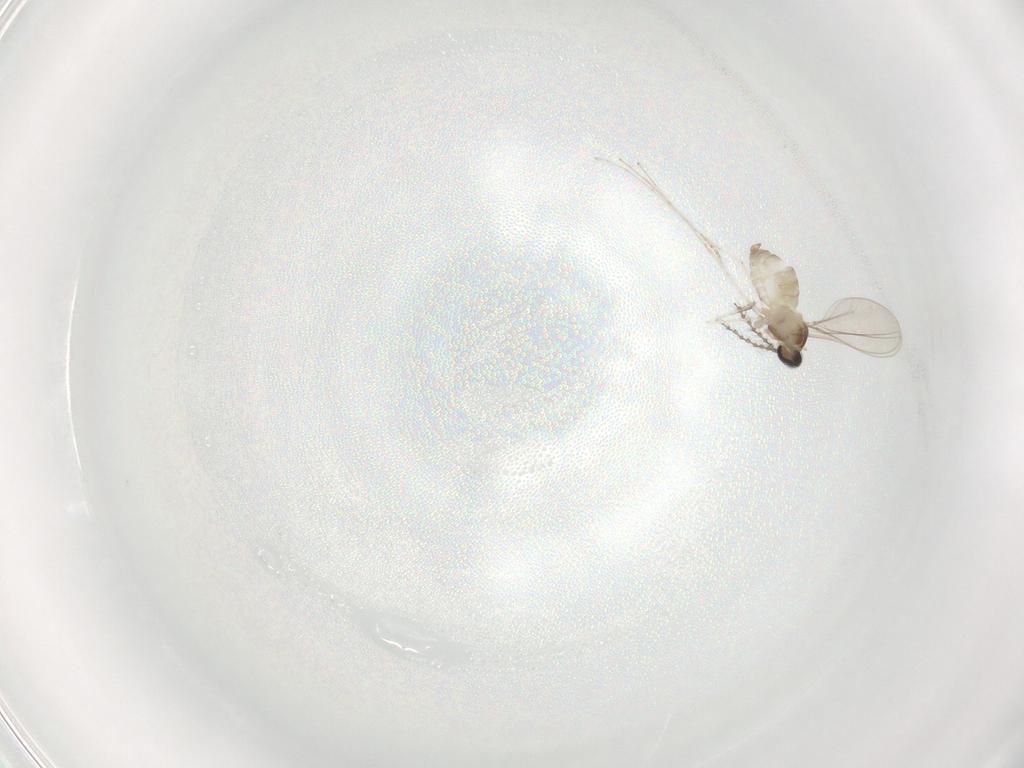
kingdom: Animalia
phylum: Arthropoda
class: Insecta
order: Diptera
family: Cecidomyiidae
